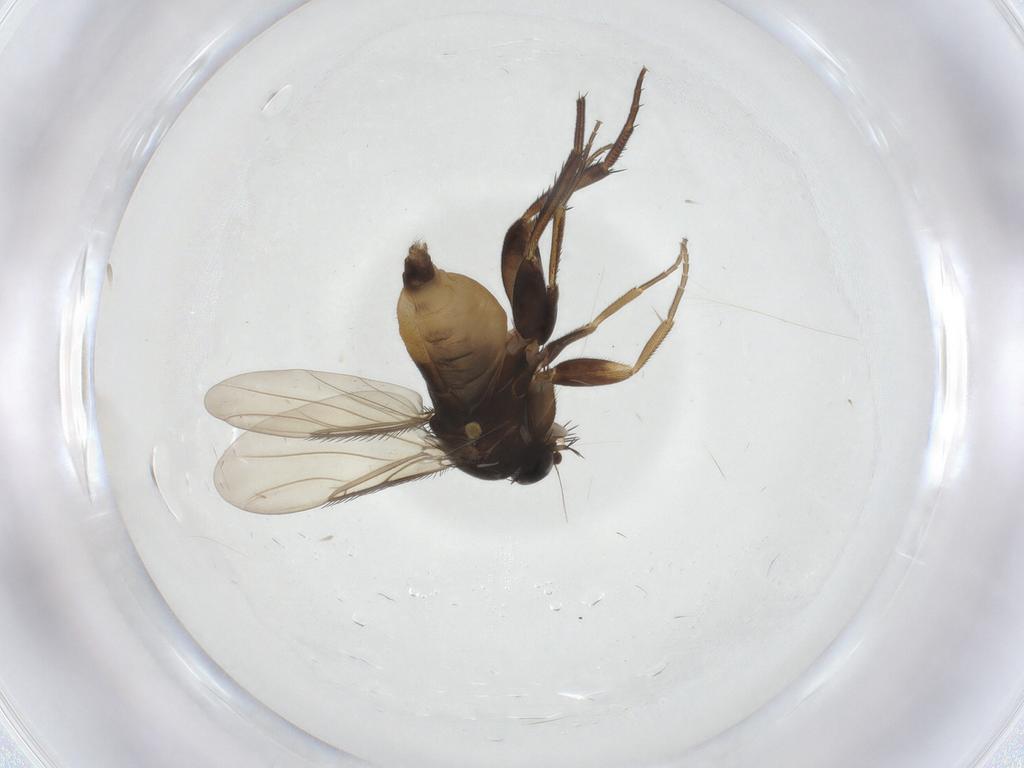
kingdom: Animalia
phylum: Arthropoda
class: Insecta
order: Diptera
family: Phoridae
